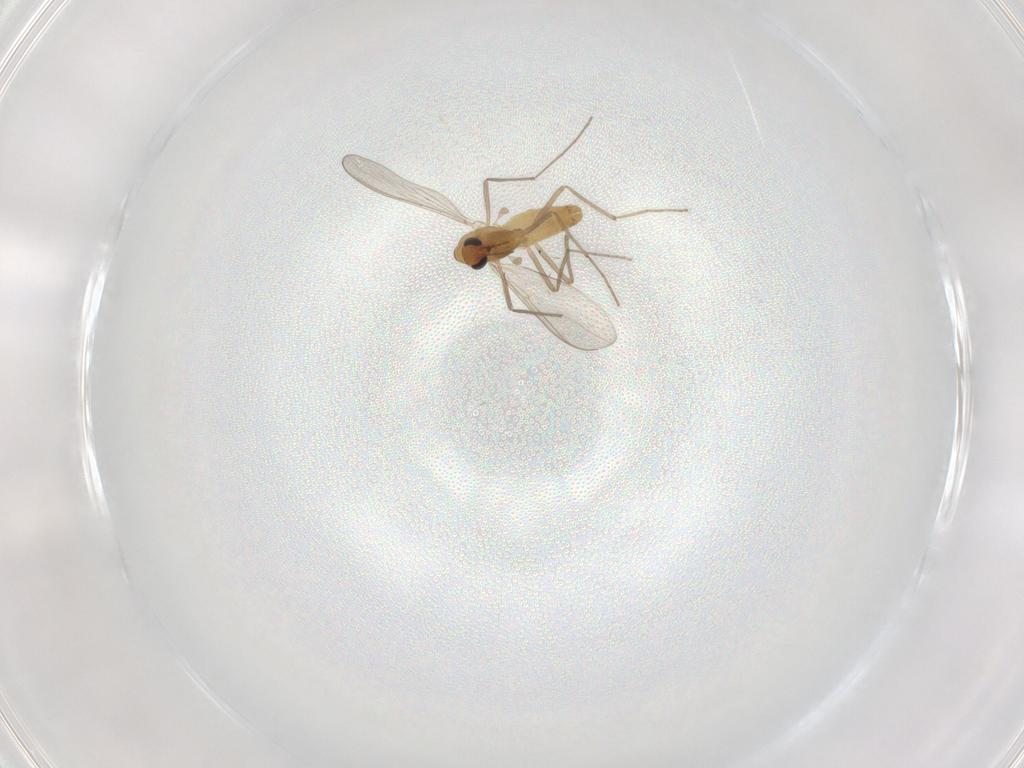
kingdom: Animalia
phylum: Arthropoda
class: Insecta
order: Diptera
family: Chironomidae
